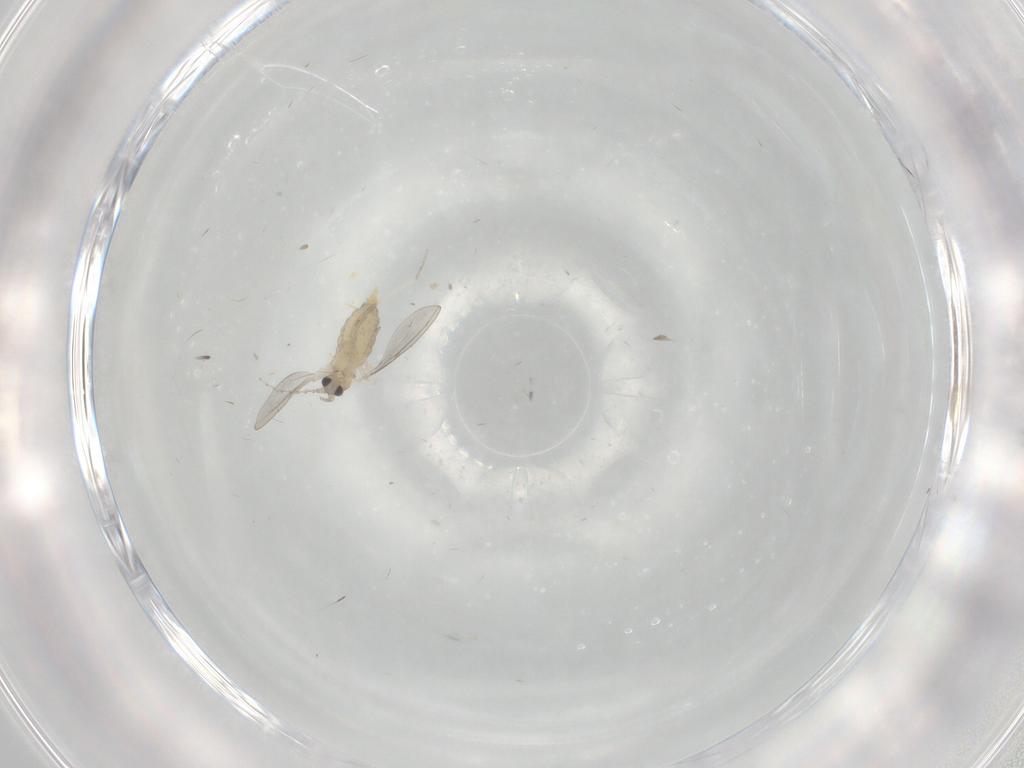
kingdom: Animalia
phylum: Arthropoda
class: Insecta
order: Diptera
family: Cecidomyiidae
